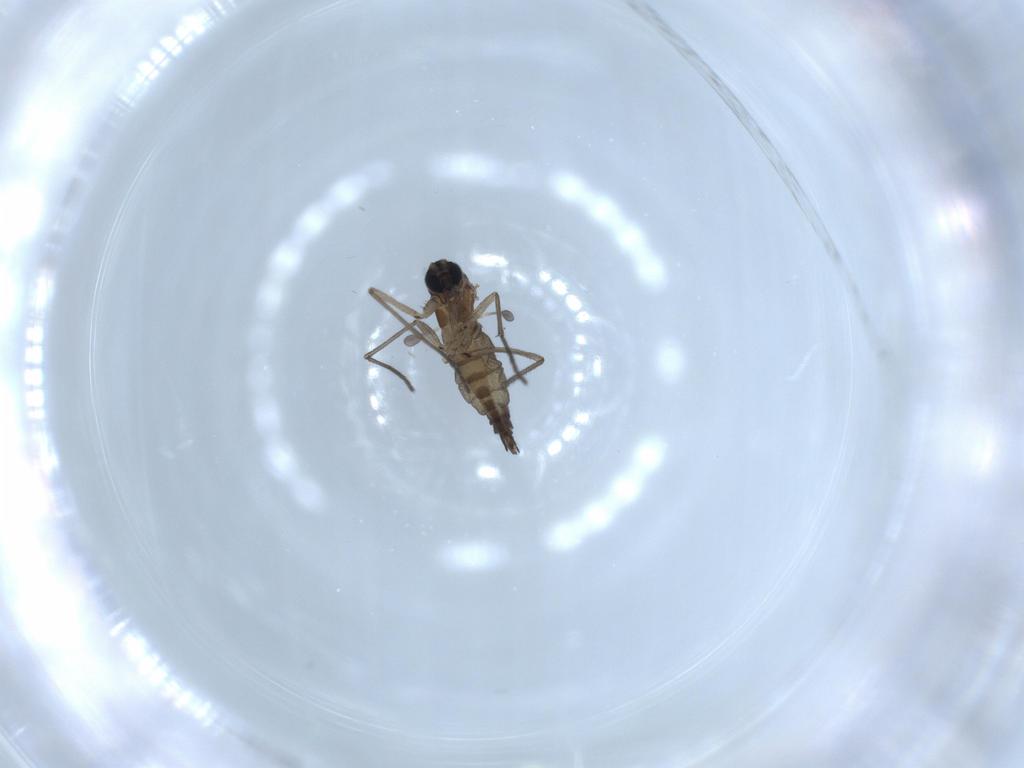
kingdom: Animalia
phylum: Arthropoda
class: Insecta
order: Diptera
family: Sciaridae
